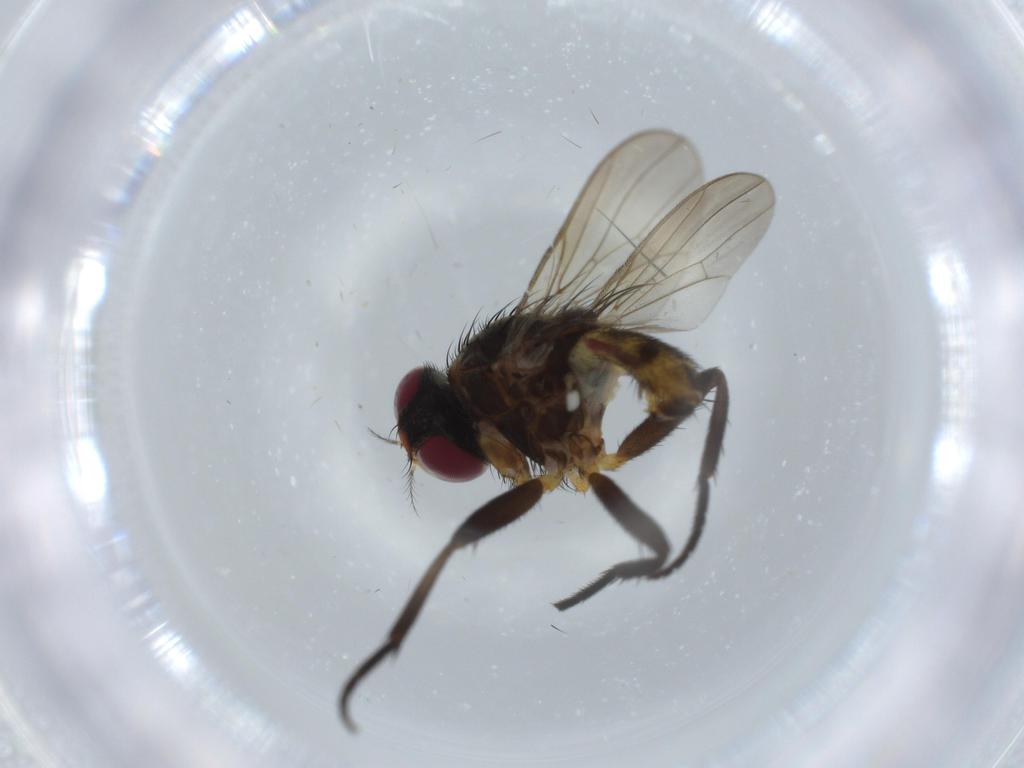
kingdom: Animalia
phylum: Arthropoda
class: Insecta
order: Diptera
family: Anthomyiidae
